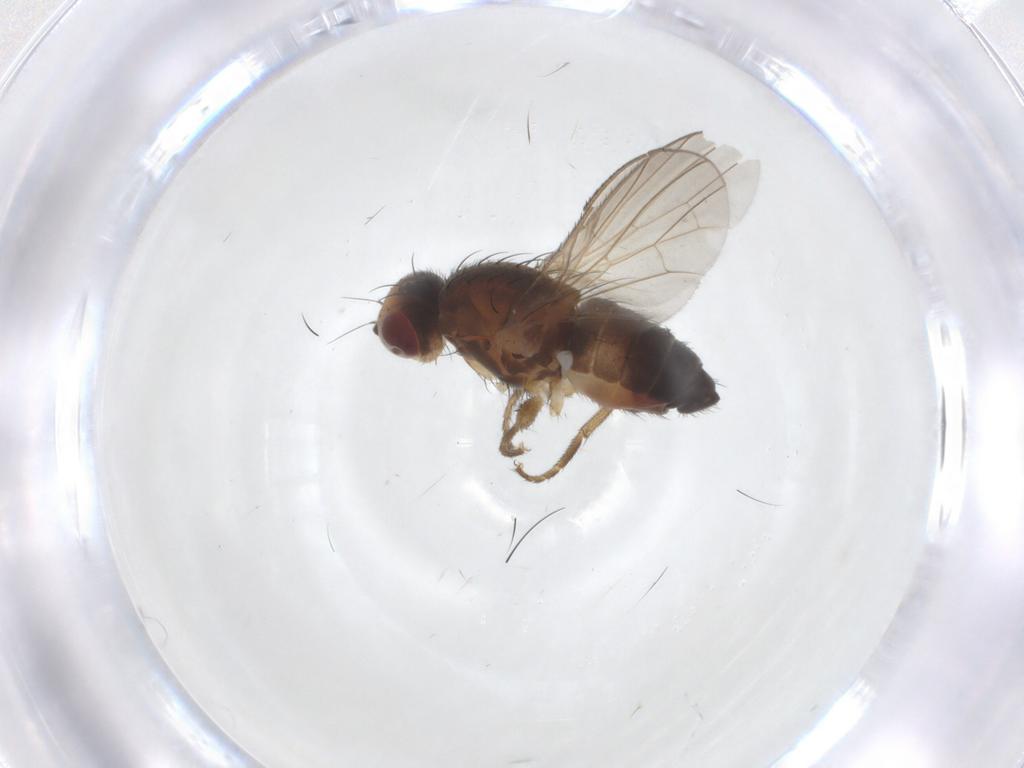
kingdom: Animalia
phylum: Arthropoda
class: Insecta
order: Diptera
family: Heleomyzidae
